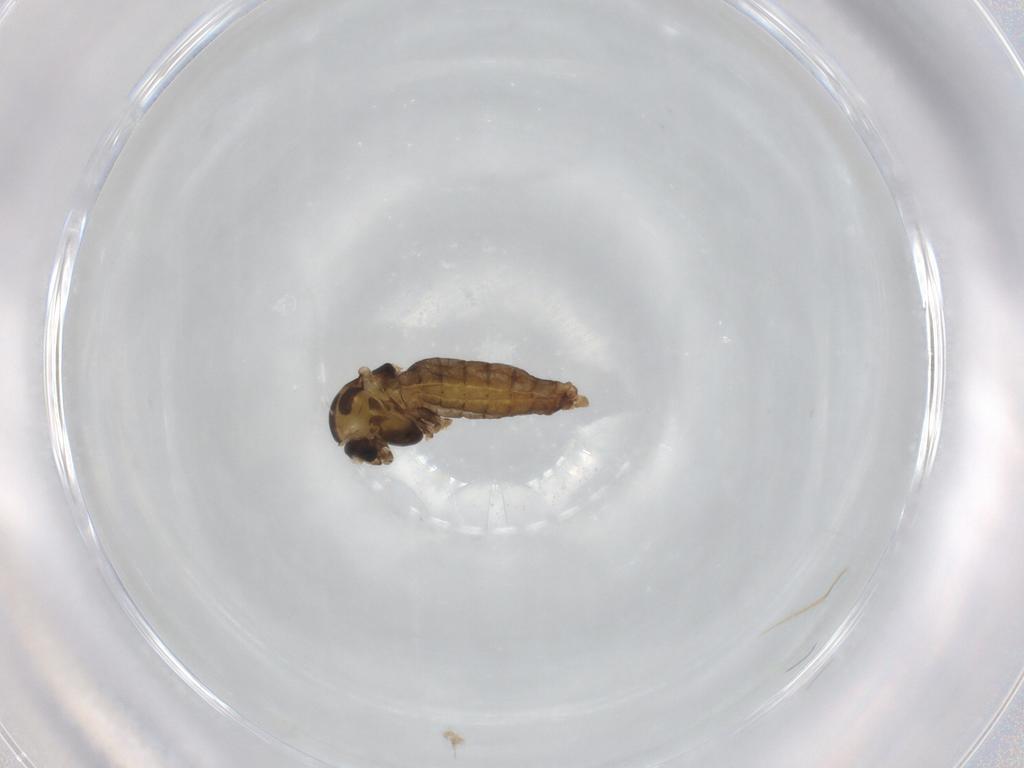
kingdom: Animalia
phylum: Arthropoda
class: Insecta
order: Diptera
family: Chironomidae
